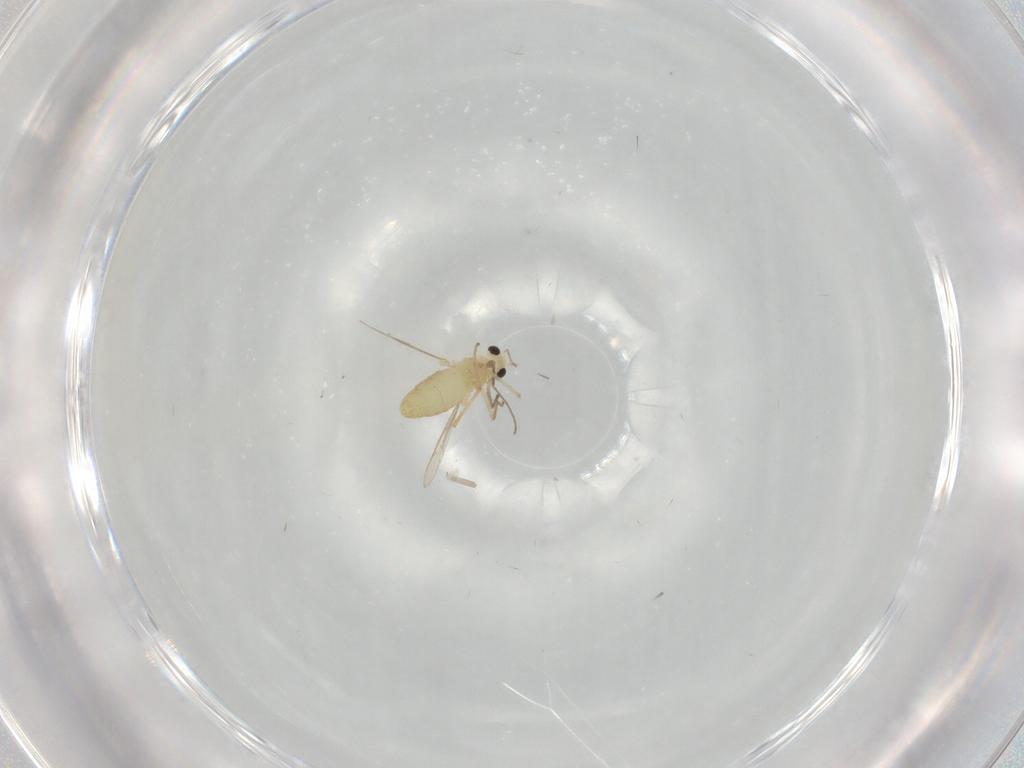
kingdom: Animalia
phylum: Arthropoda
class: Insecta
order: Diptera
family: Chironomidae
